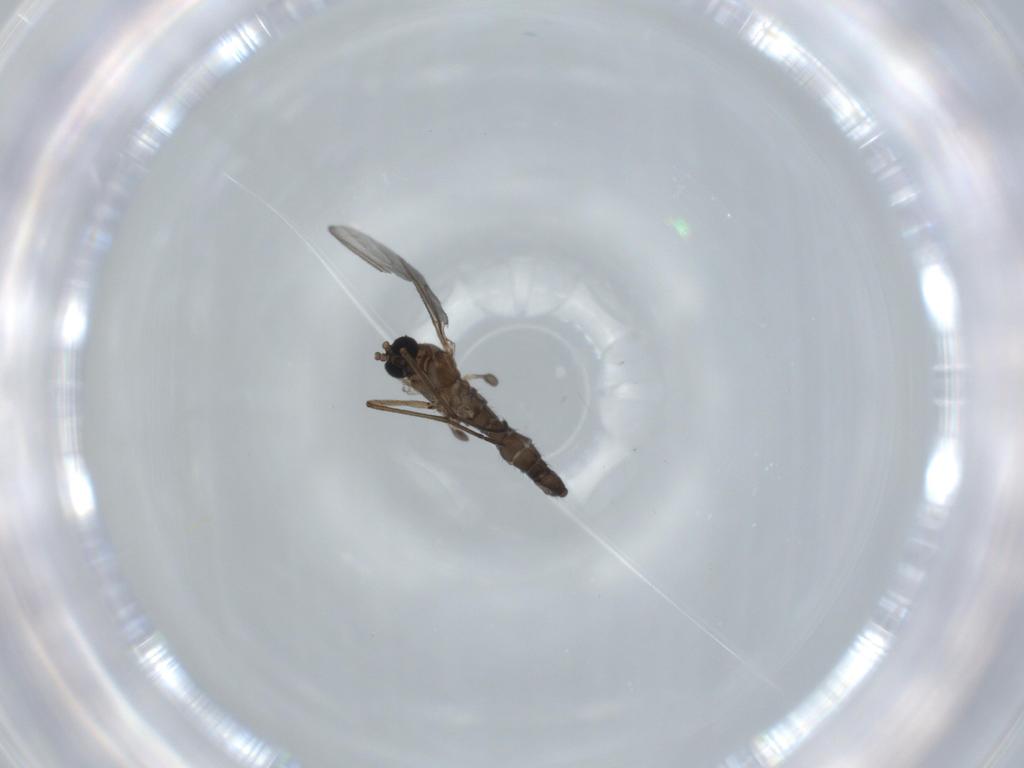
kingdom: Animalia
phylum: Arthropoda
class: Insecta
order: Diptera
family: Sciaridae
